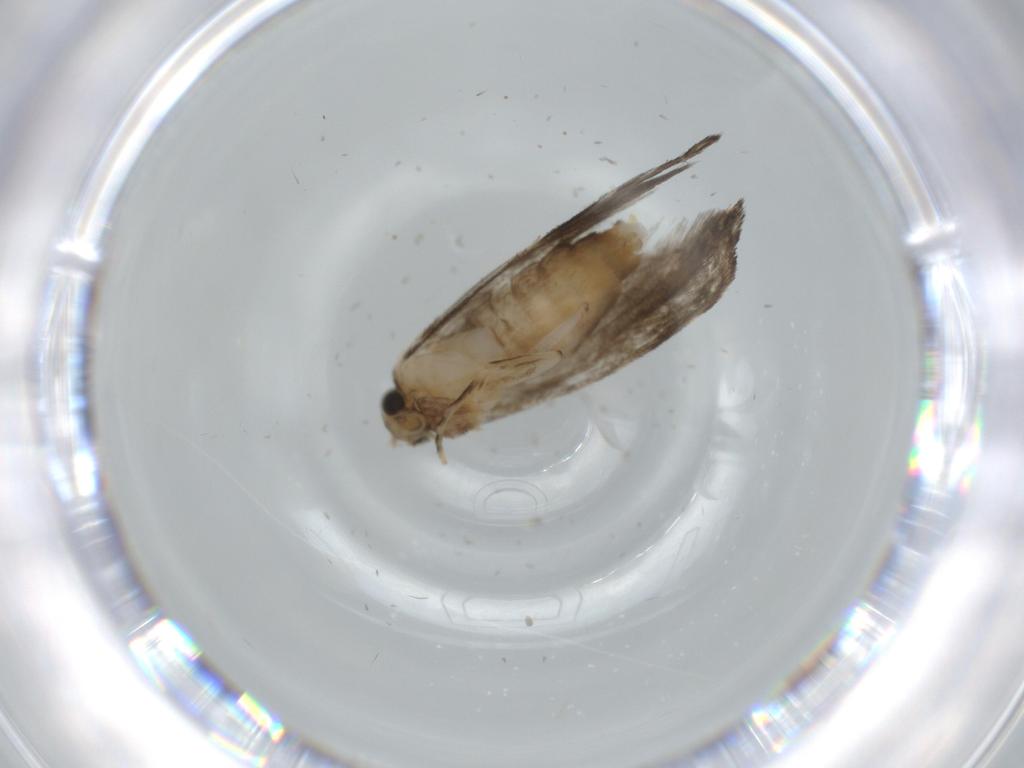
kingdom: Animalia
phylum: Arthropoda
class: Insecta
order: Lepidoptera
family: Tineidae
